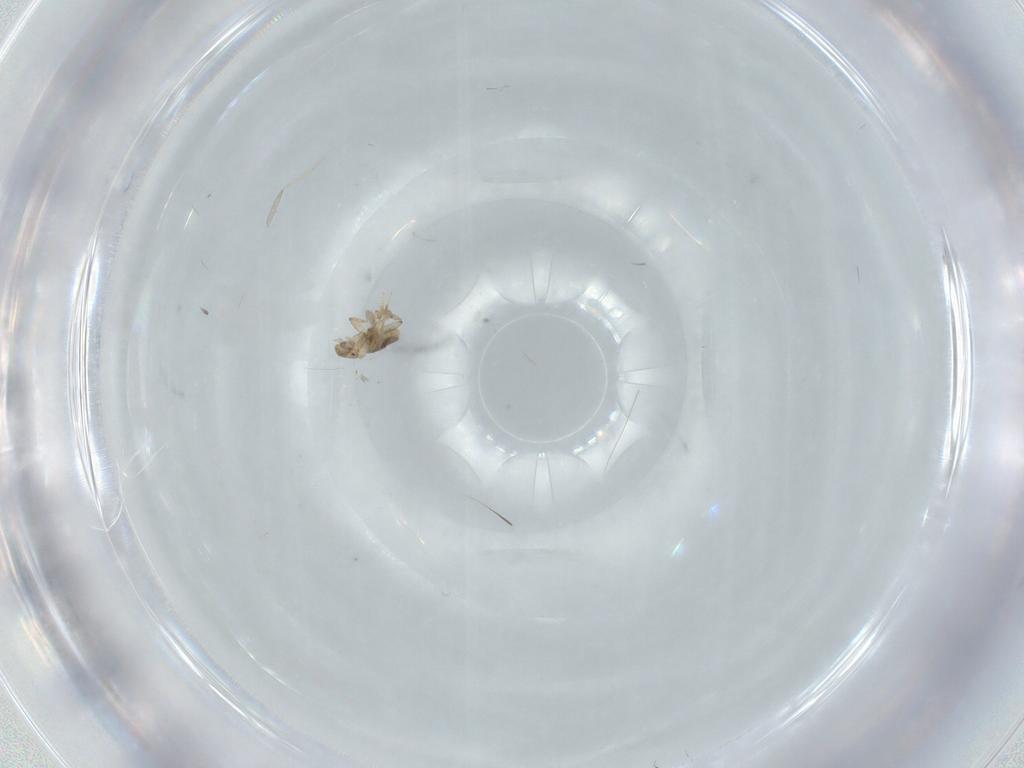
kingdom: Animalia
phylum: Arthropoda
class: Insecta
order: Diptera
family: Cecidomyiidae
